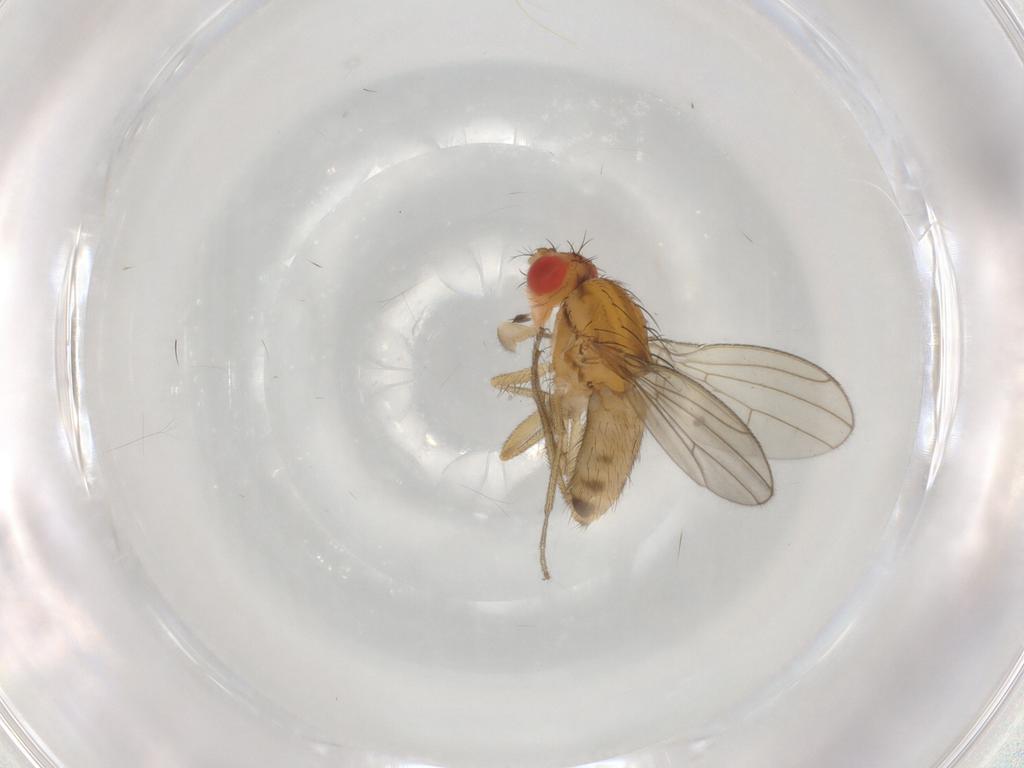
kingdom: Animalia
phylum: Arthropoda
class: Insecta
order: Diptera
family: Drosophilidae
